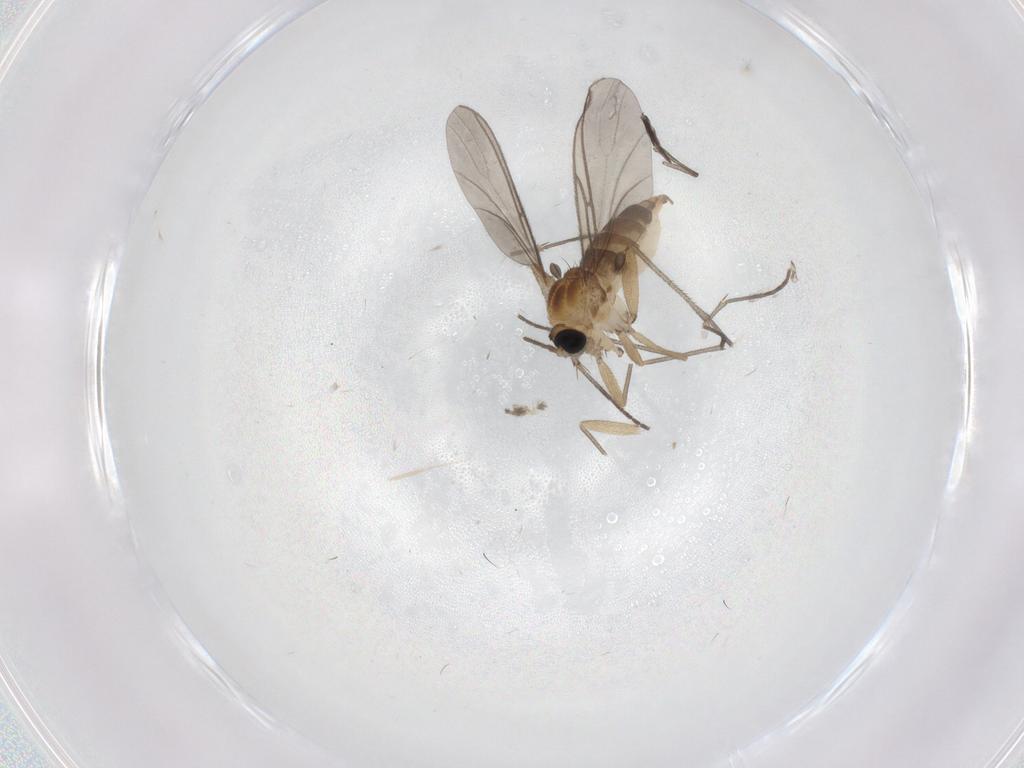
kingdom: Animalia
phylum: Arthropoda
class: Insecta
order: Diptera
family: Sciaridae
